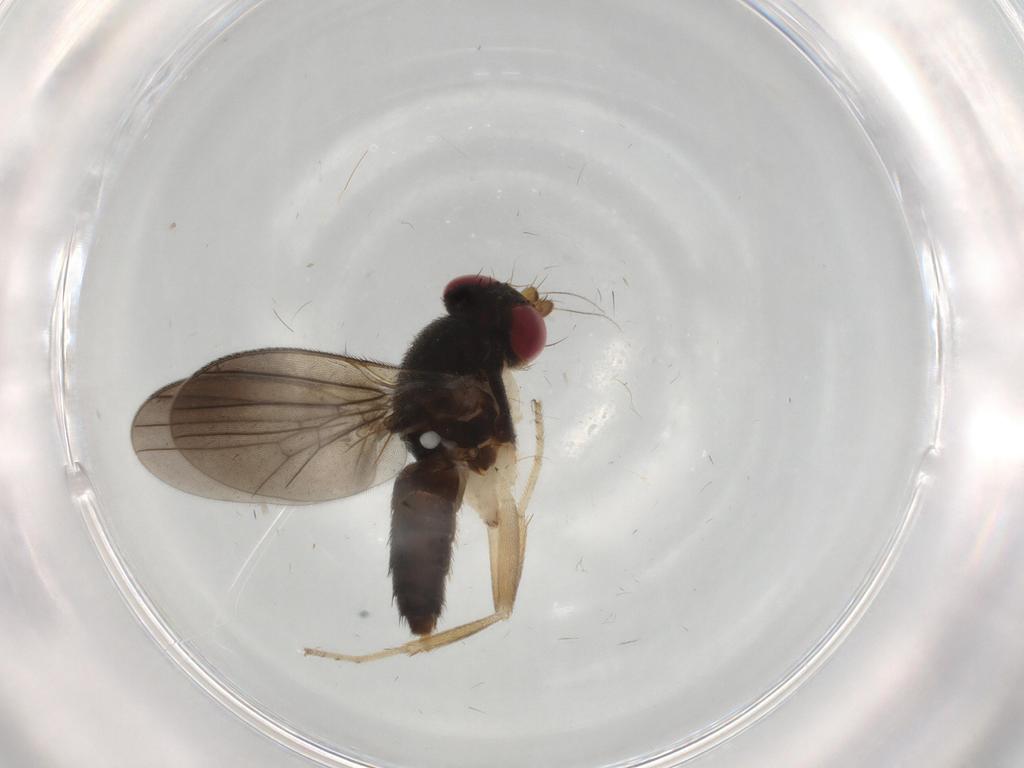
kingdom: Animalia
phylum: Arthropoda
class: Insecta
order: Diptera
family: Clusiidae
